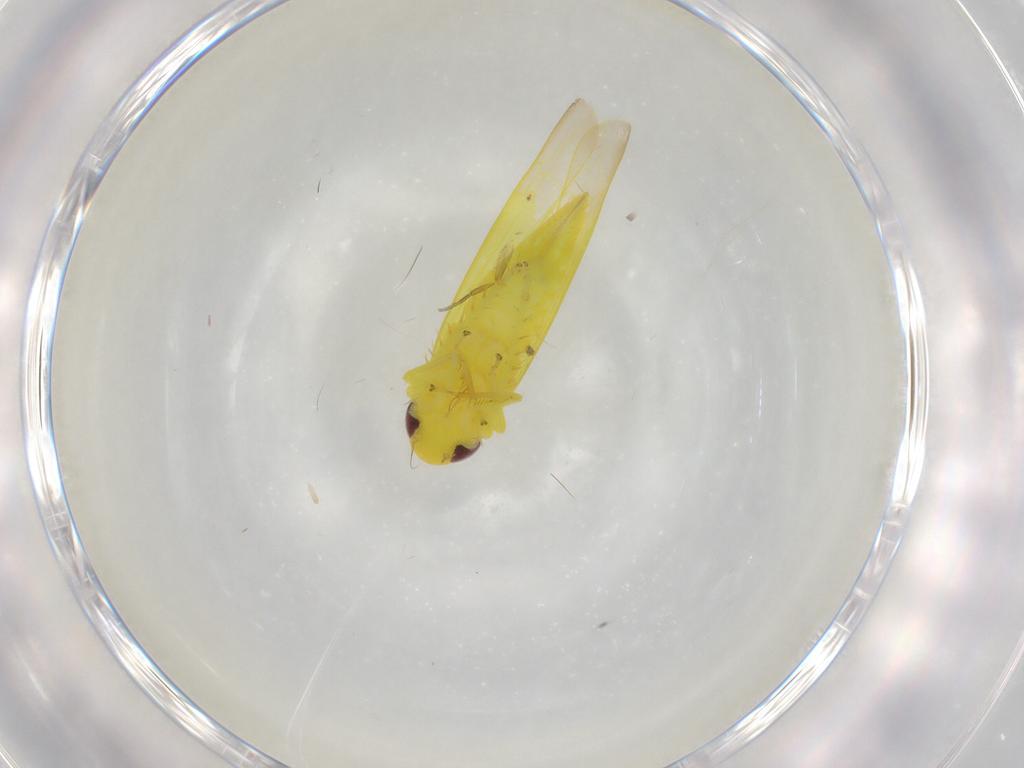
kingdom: Animalia
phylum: Arthropoda
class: Insecta
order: Hemiptera
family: Cicadellidae
